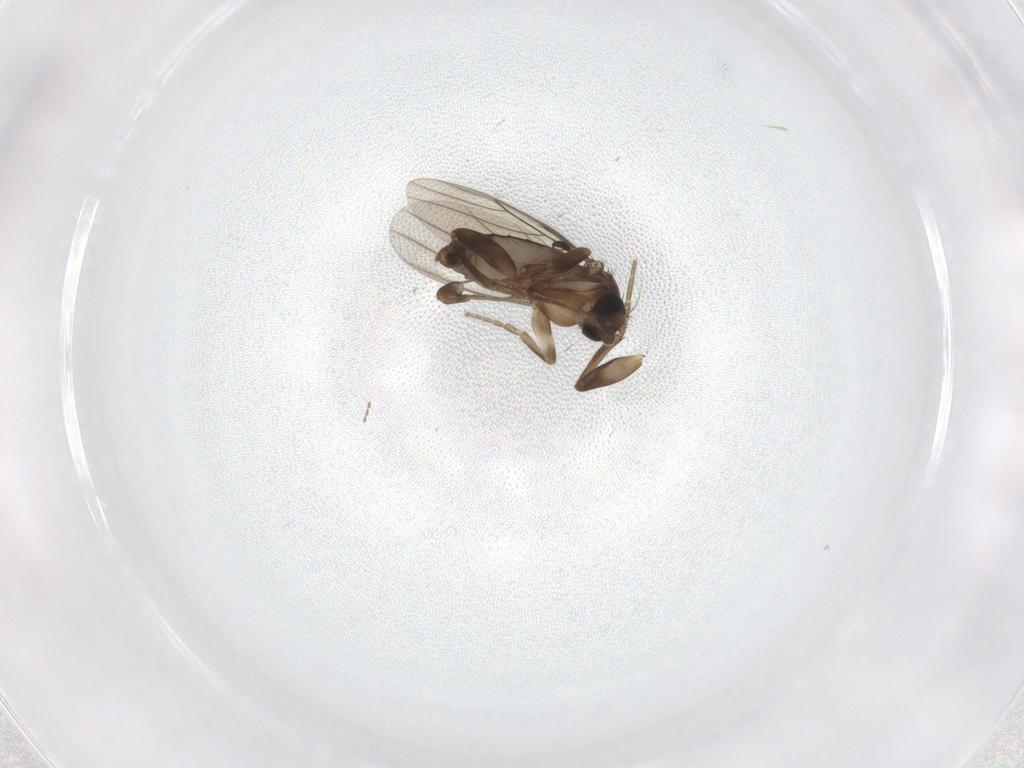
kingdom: Animalia
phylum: Arthropoda
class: Insecta
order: Diptera
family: Phoridae
